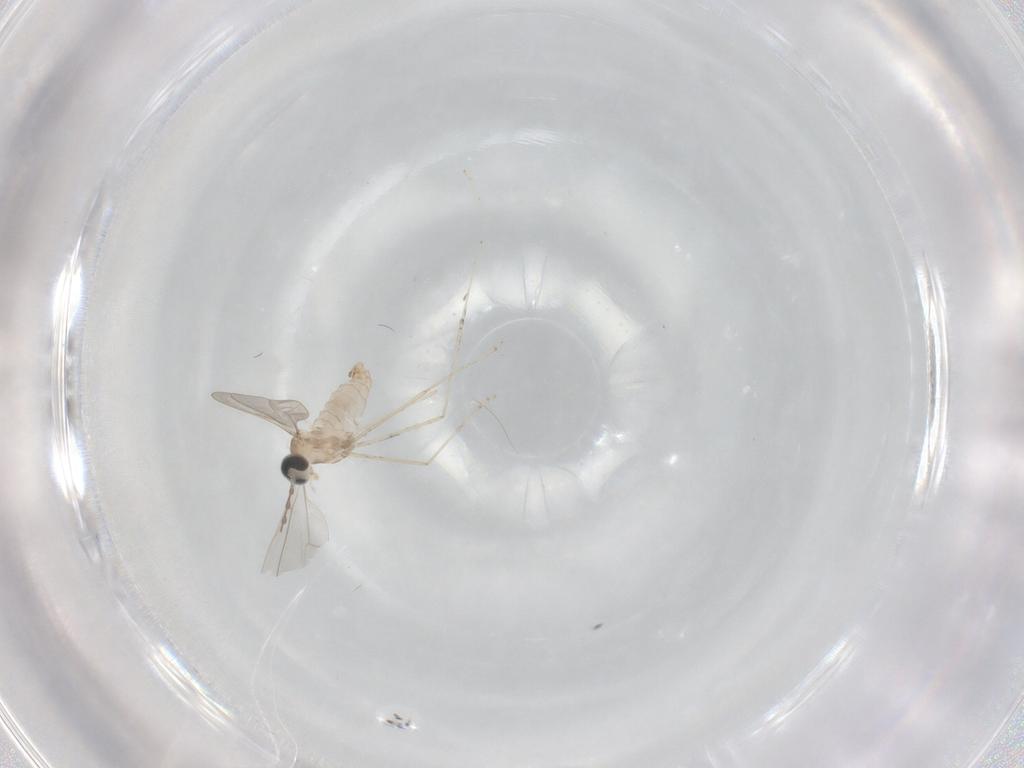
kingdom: Animalia
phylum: Arthropoda
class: Insecta
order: Diptera
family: Cecidomyiidae
